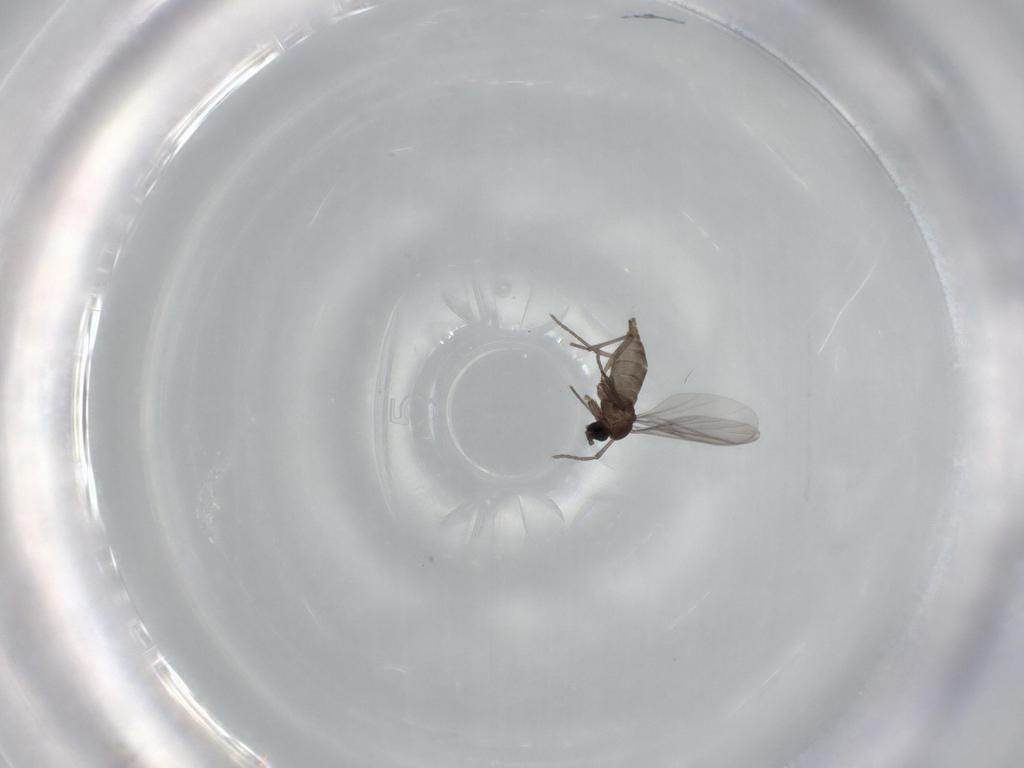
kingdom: Animalia
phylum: Arthropoda
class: Insecta
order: Diptera
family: Sciaridae
